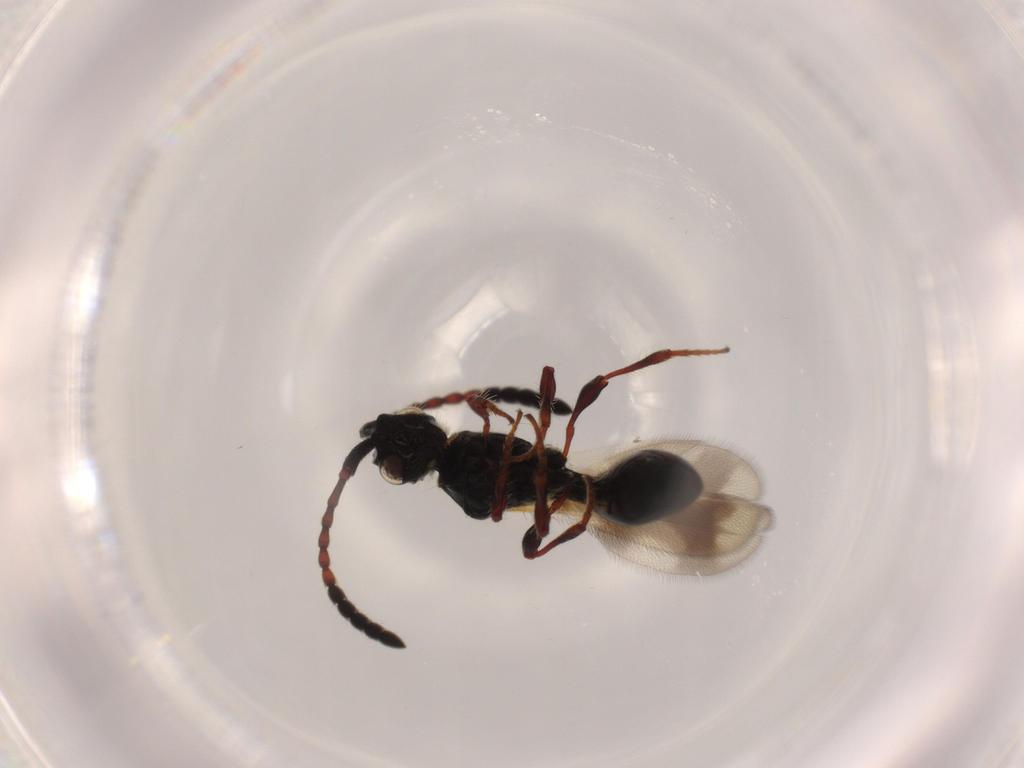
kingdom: Animalia
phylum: Arthropoda
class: Insecta
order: Hymenoptera
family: Diapriidae
